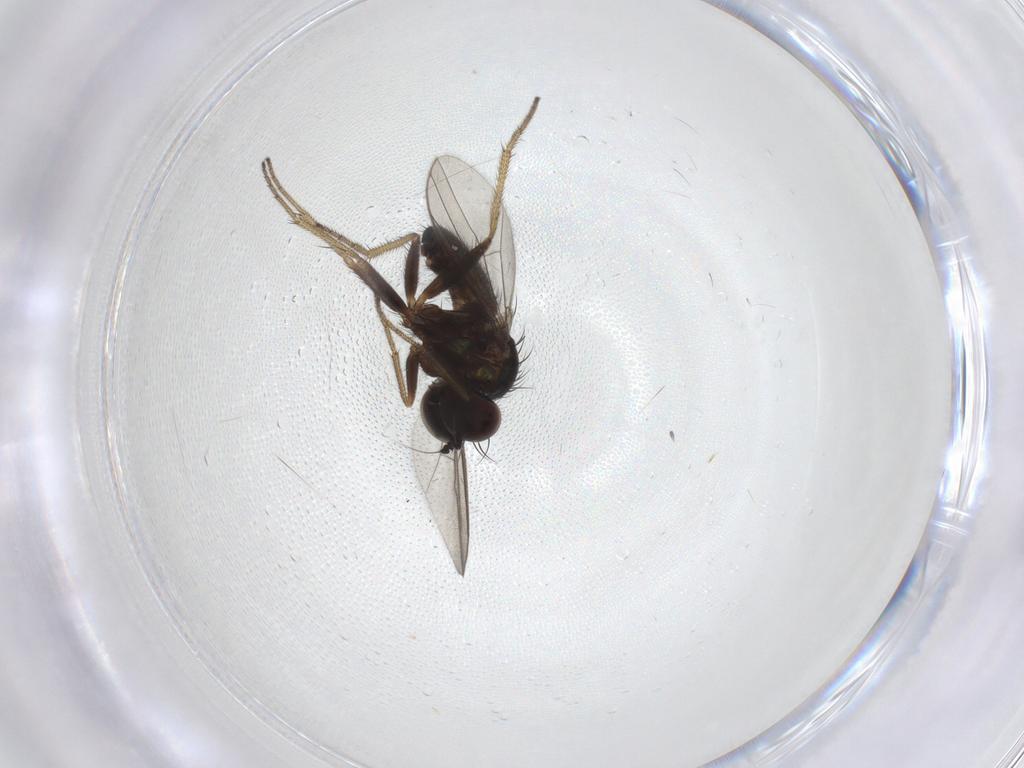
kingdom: Animalia
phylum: Arthropoda
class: Insecta
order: Diptera
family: Dolichopodidae
